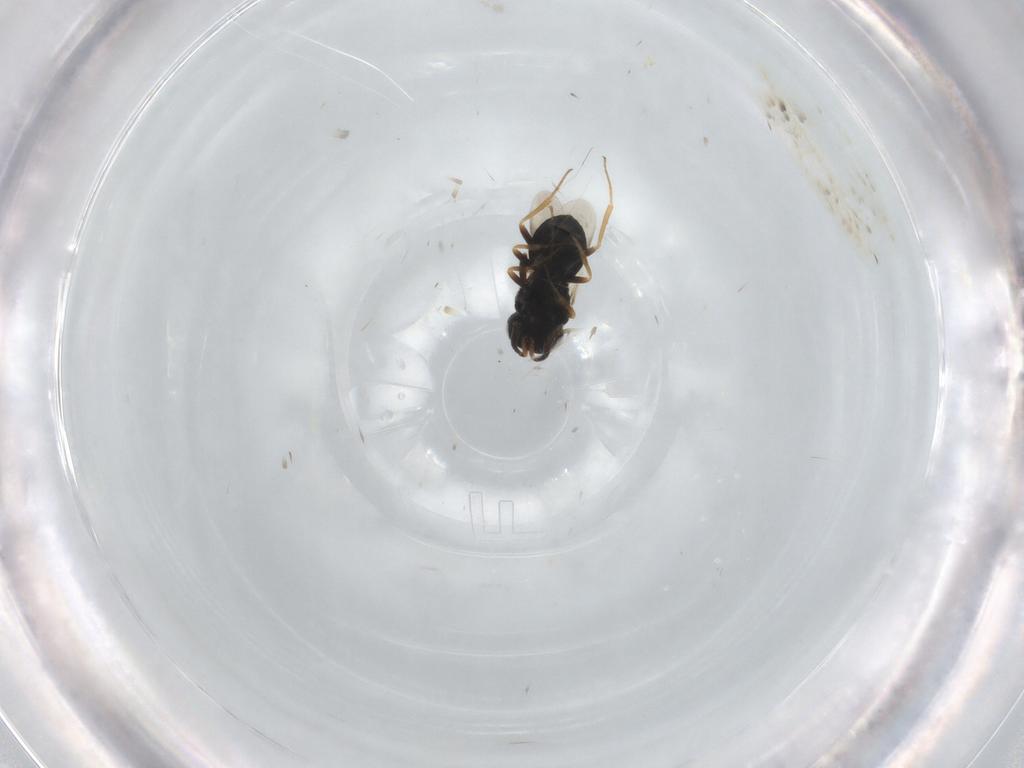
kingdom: Animalia
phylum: Arthropoda
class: Insecta
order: Hymenoptera
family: Scelionidae
